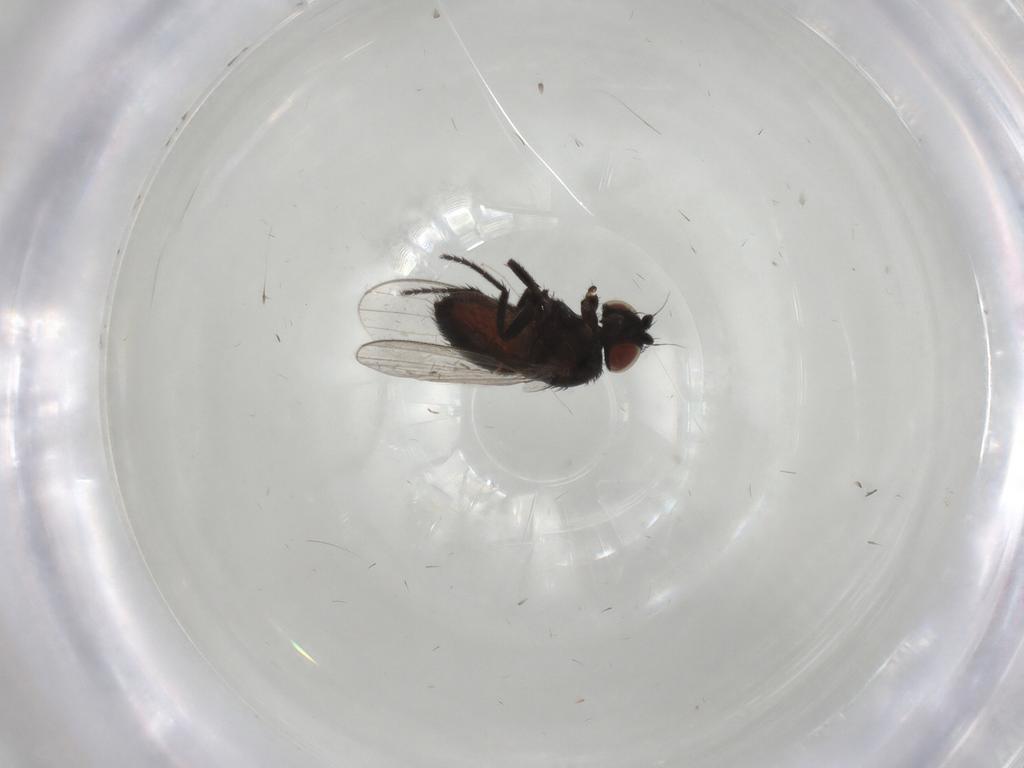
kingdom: Animalia
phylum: Arthropoda
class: Insecta
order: Diptera
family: Milichiidae
